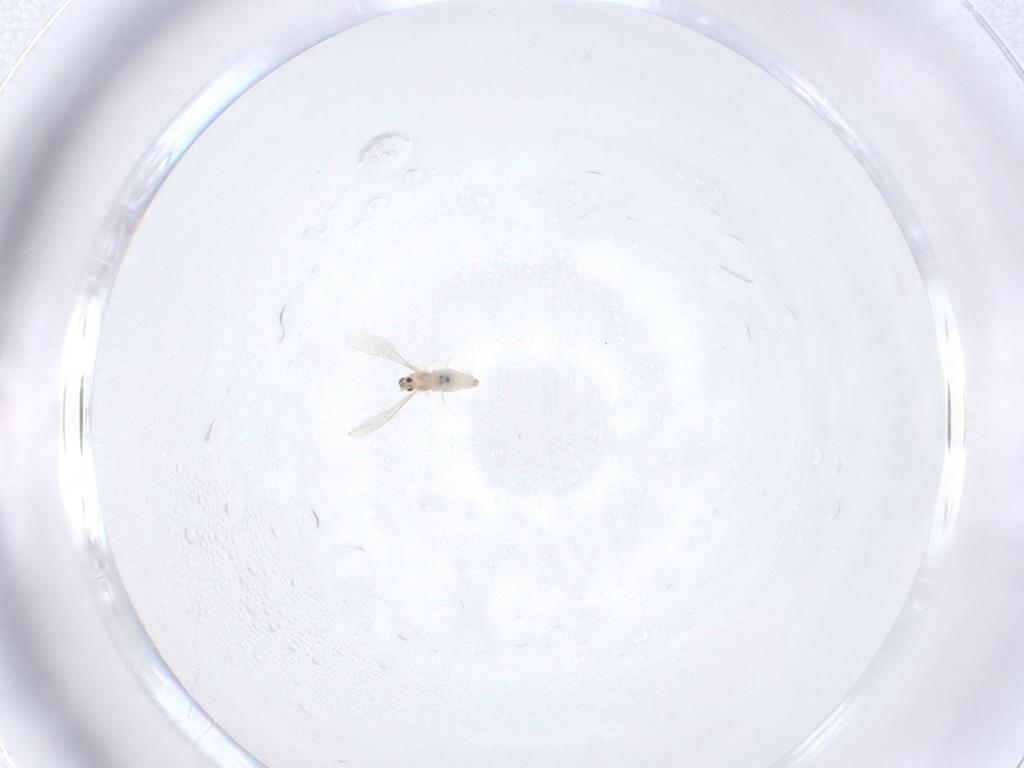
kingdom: Animalia
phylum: Arthropoda
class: Insecta
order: Diptera
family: Cecidomyiidae
